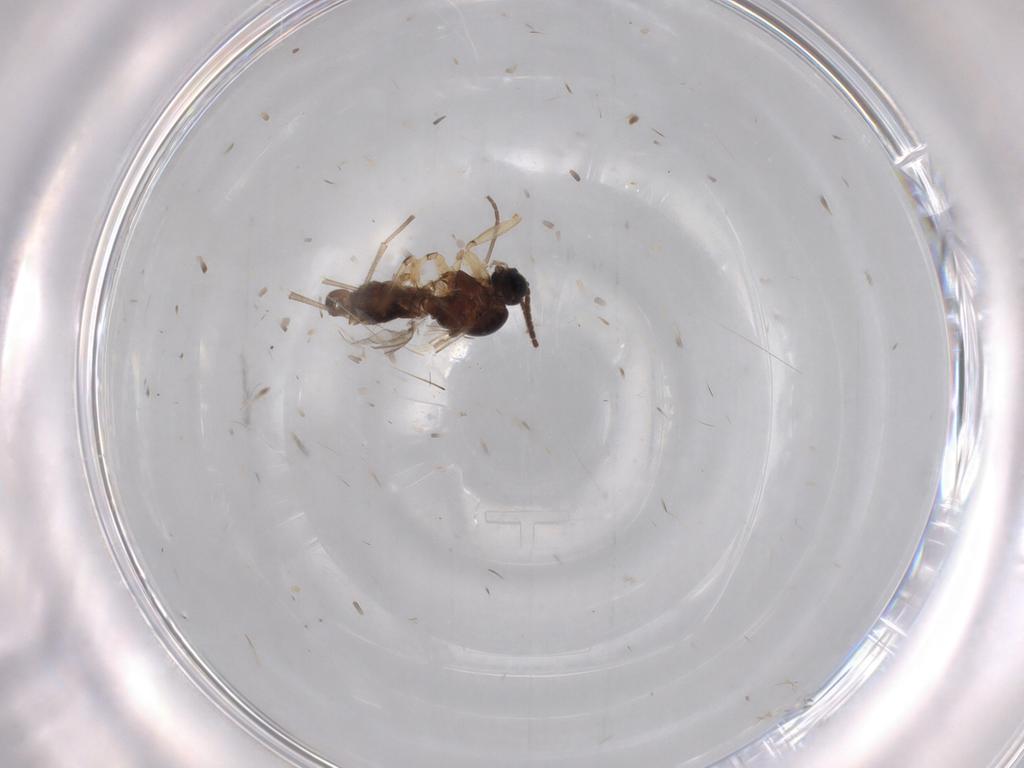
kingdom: Animalia
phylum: Arthropoda
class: Insecta
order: Diptera
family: Sciaridae
